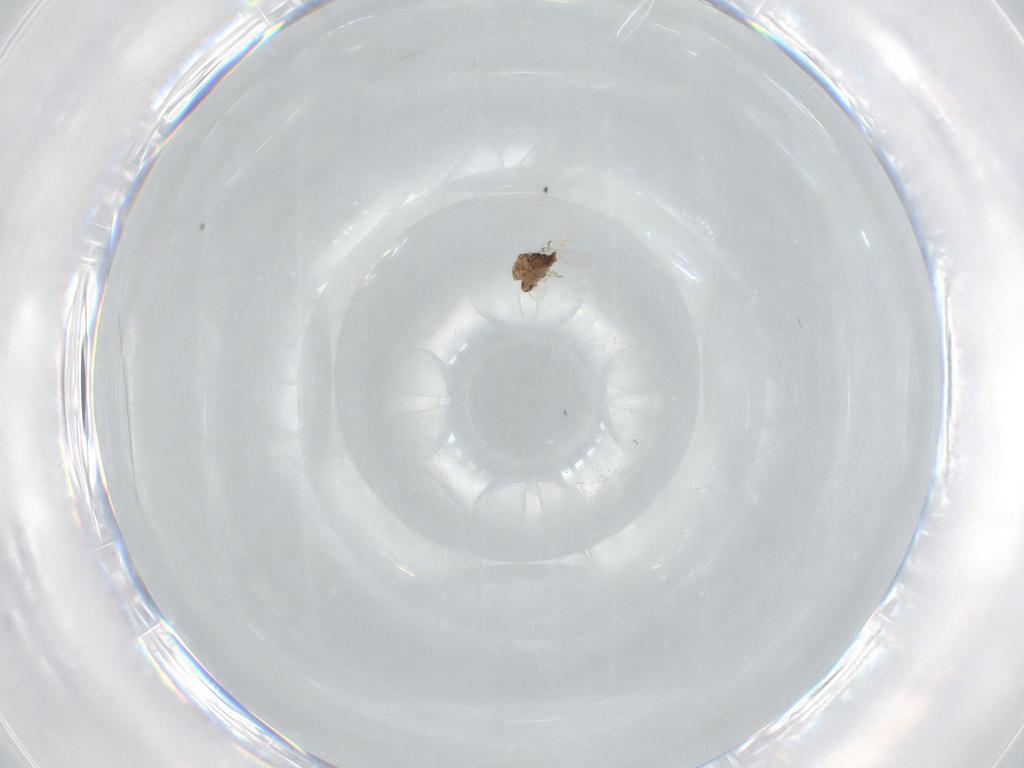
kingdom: Animalia
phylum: Arthropoda
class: Insecta
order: Diptera
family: Chironomidae
